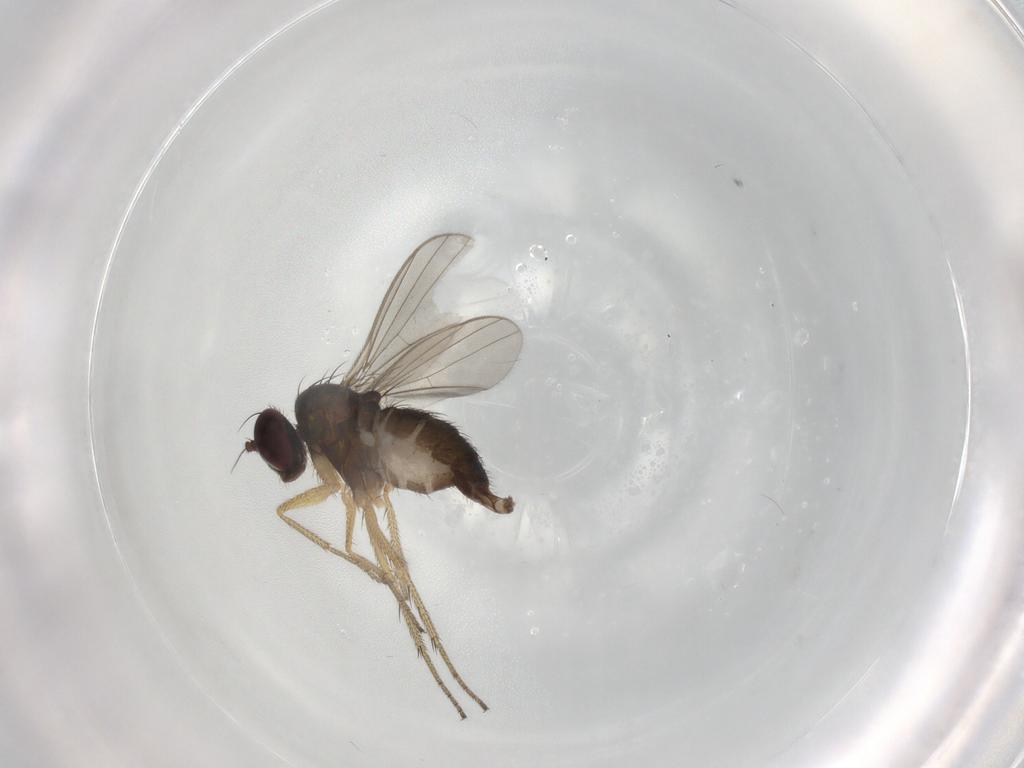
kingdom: Animalia
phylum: Arthropoda
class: Insecta
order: Diptera
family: Dolichopodidae
